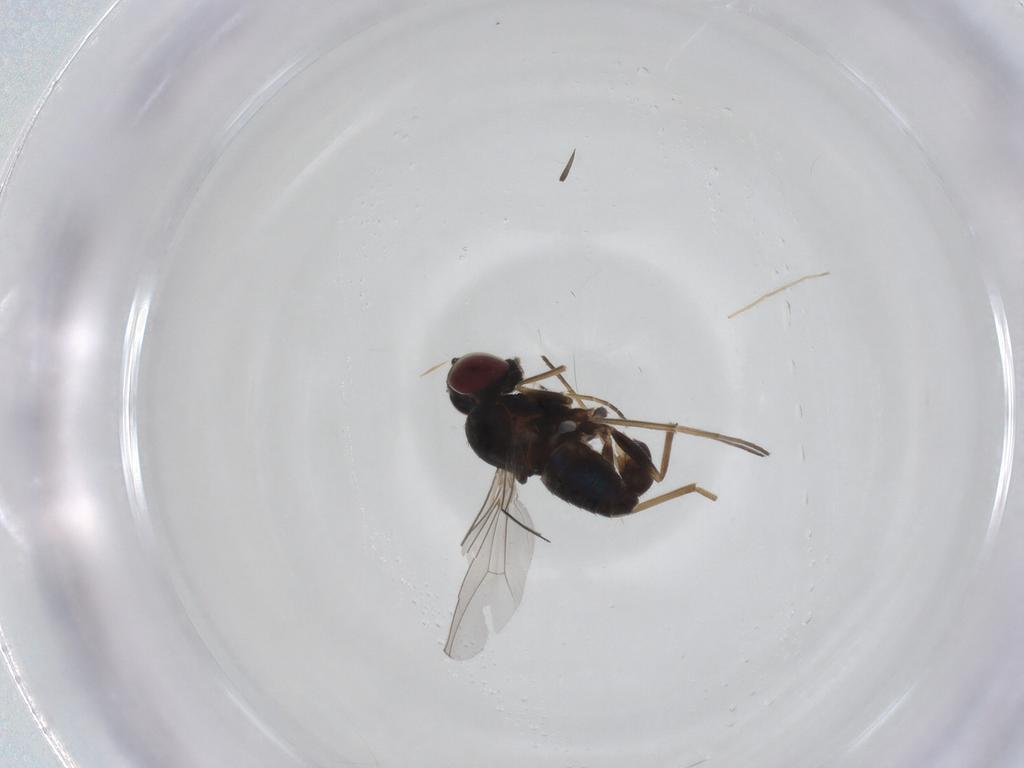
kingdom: Animalia
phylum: Arthropoda
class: Insecta
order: Diptera
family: Dolichopodidae
